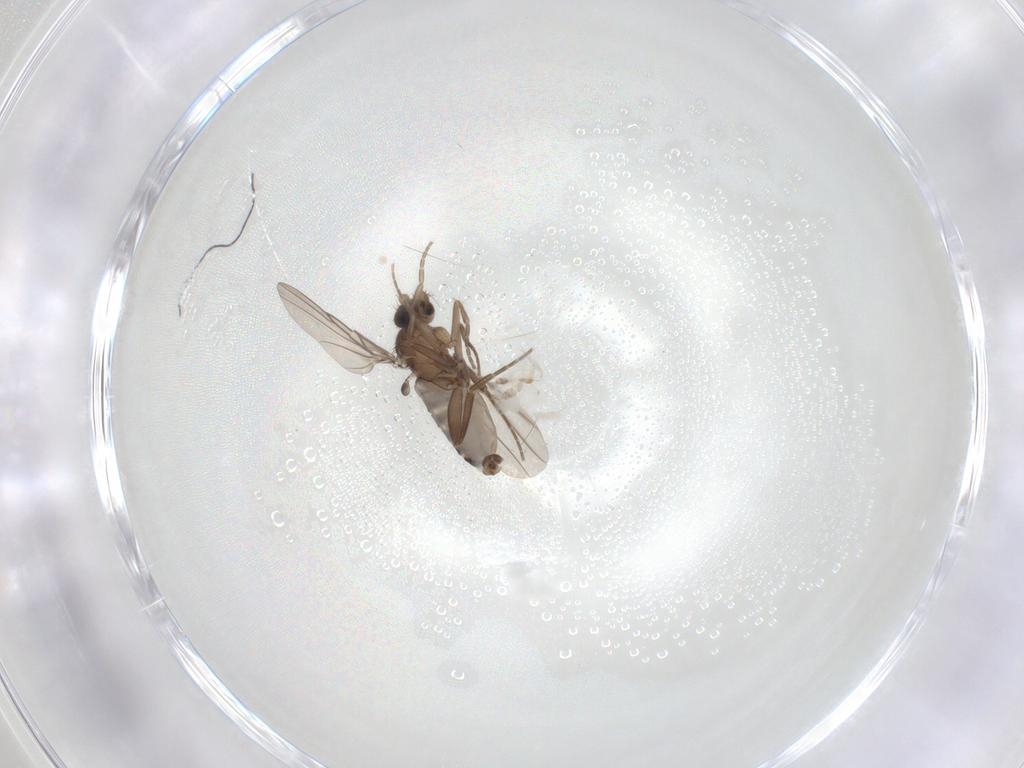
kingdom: Animalia
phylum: Arthropoda
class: Insecta
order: Diptera
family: Blephariceridae
